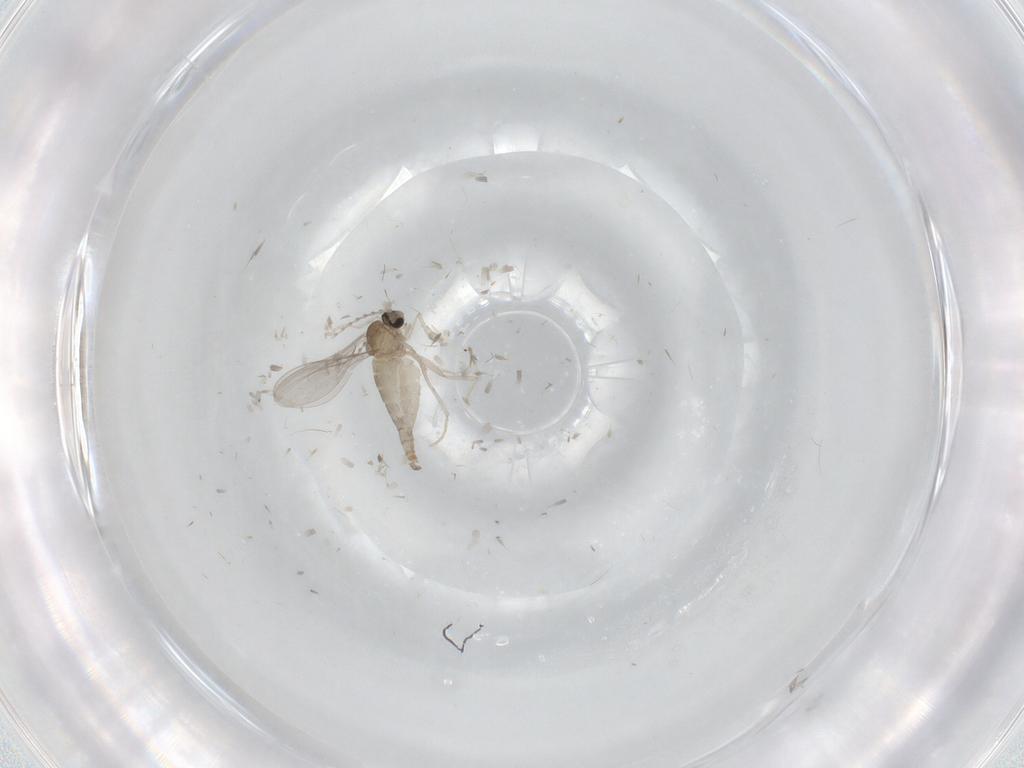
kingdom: Animalia
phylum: Arthropoda
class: Insecta
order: Diptera
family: Cecidomyiidae
